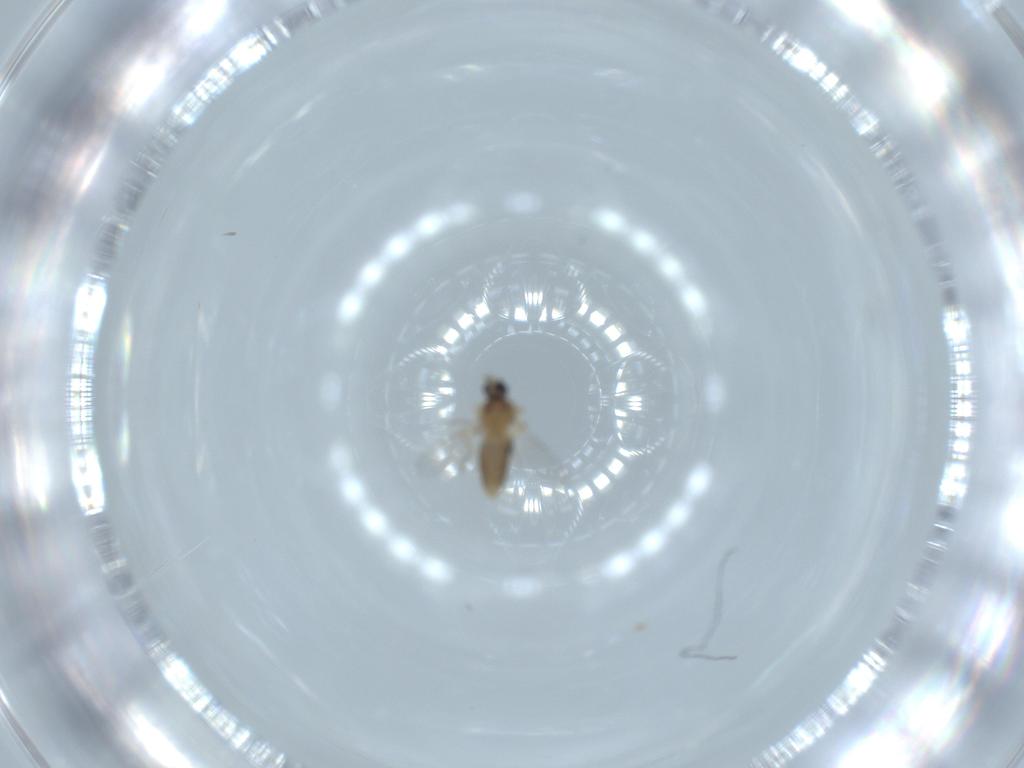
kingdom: Animalia
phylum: Arthropoda
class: Insecta
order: Diptera
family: Ceratopogonidae
